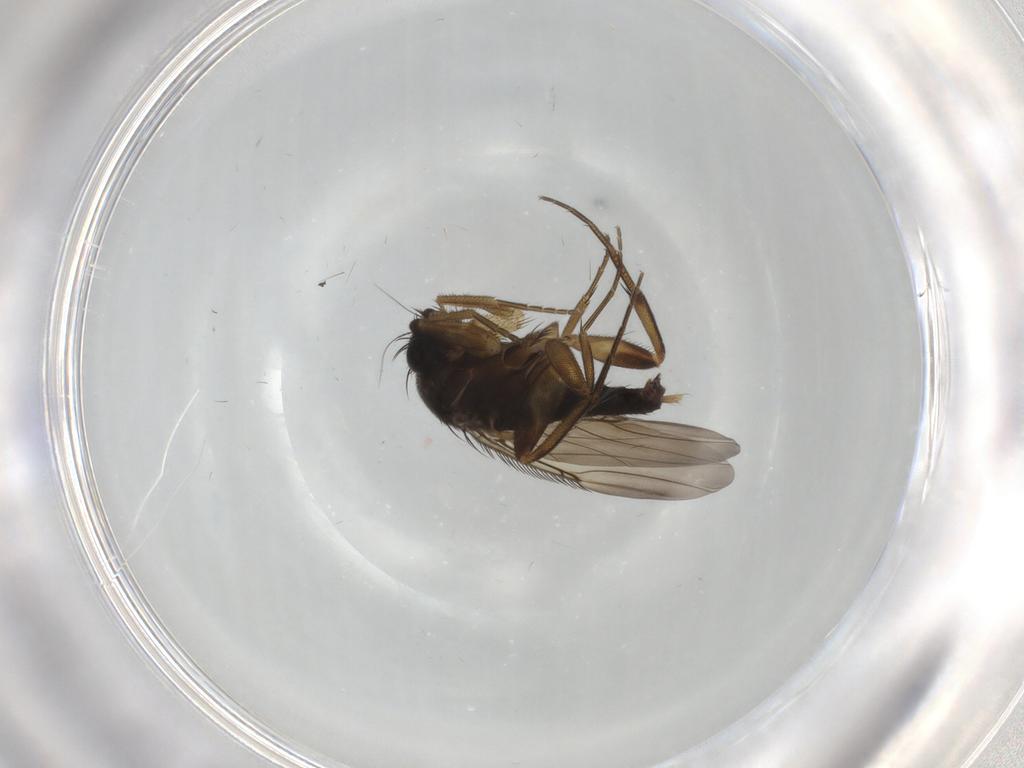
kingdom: Animalia
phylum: Arthropoda
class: Insecta
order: Diptera
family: Phoridae
